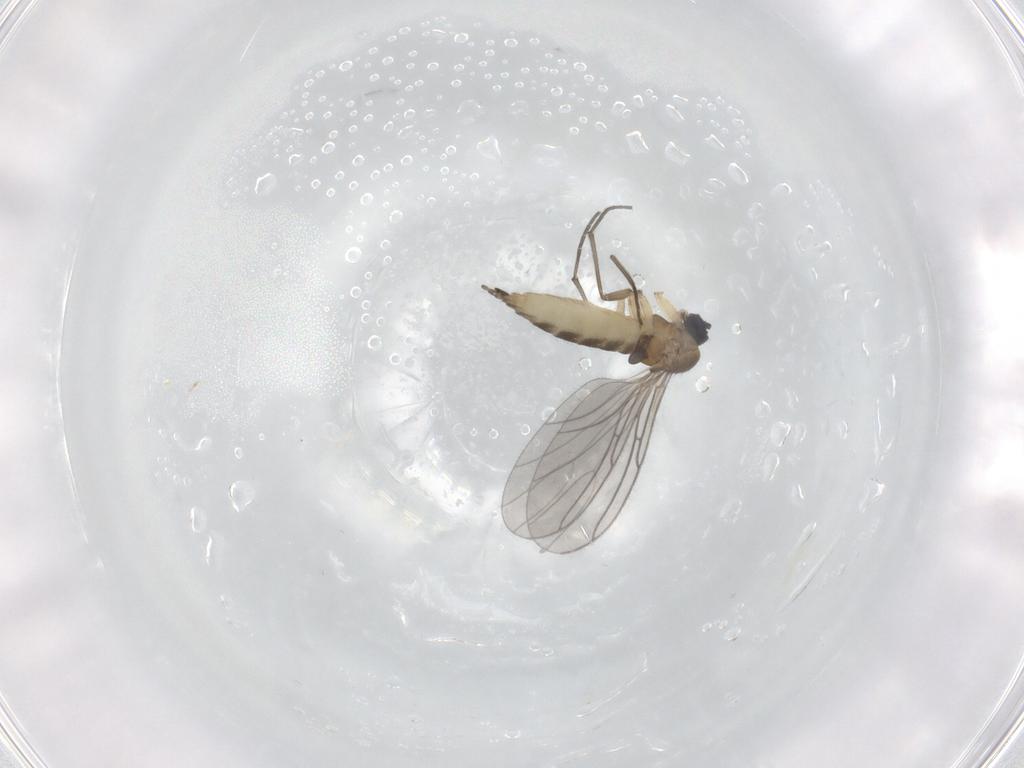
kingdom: Animalia
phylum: Arthropoda
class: Insecta
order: Diptera
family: Sciaridae
